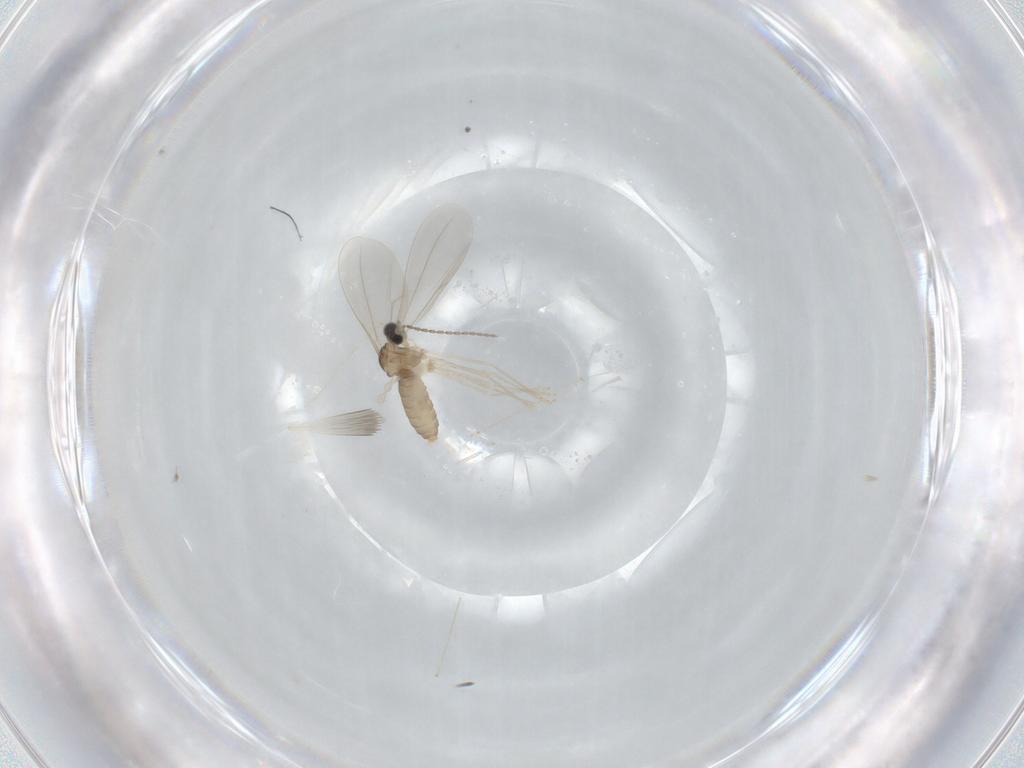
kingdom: Animalia
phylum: Arthropoda
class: Insecta
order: Diptera
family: Cecidomyiidae
